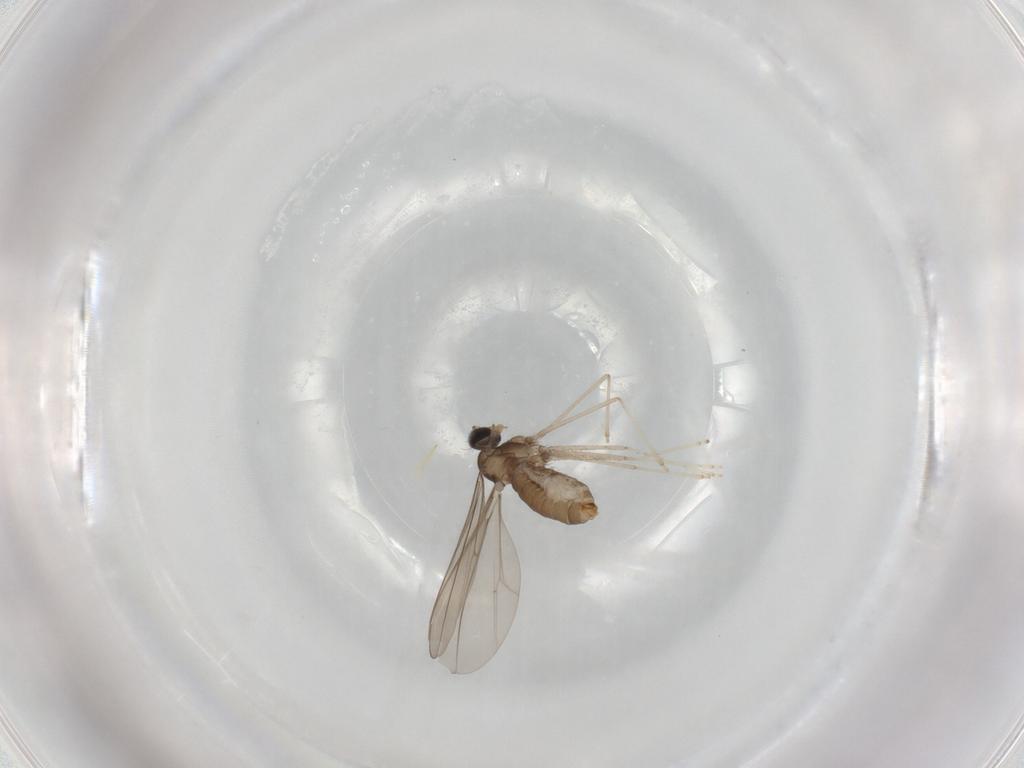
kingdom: Animalia
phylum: Arthropoda
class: Insecta
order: Diptera
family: Cecidomyiidae
